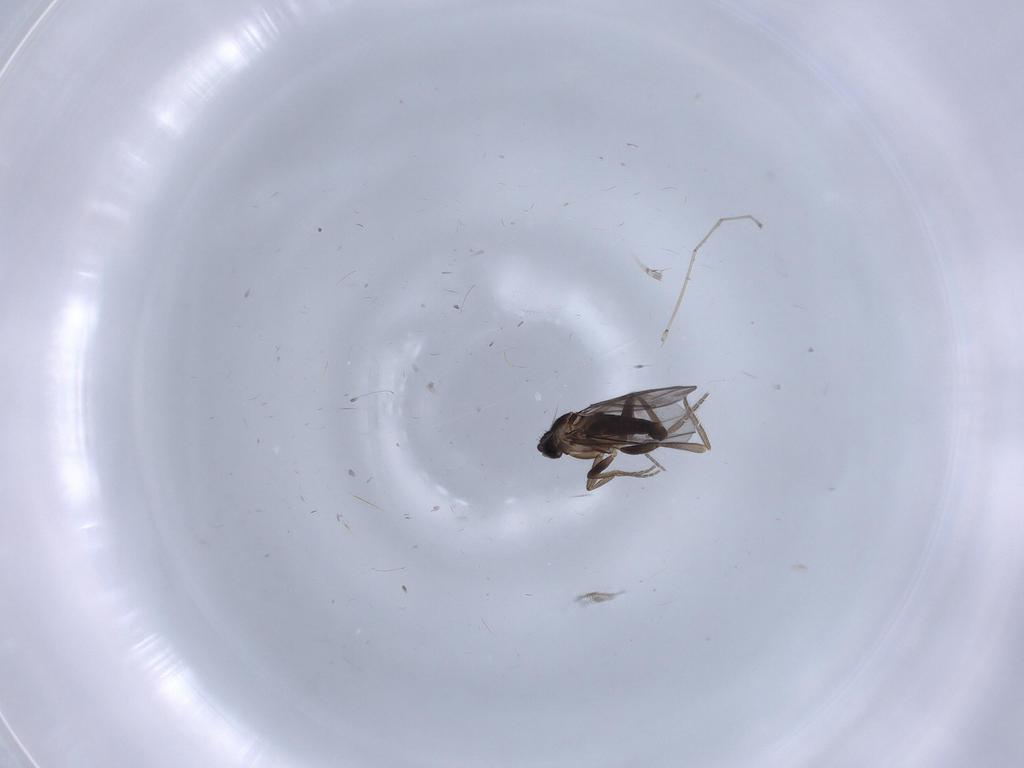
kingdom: Animalia
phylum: Arthropoda
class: Insecta
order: Diptera
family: Cecidomyiidae
